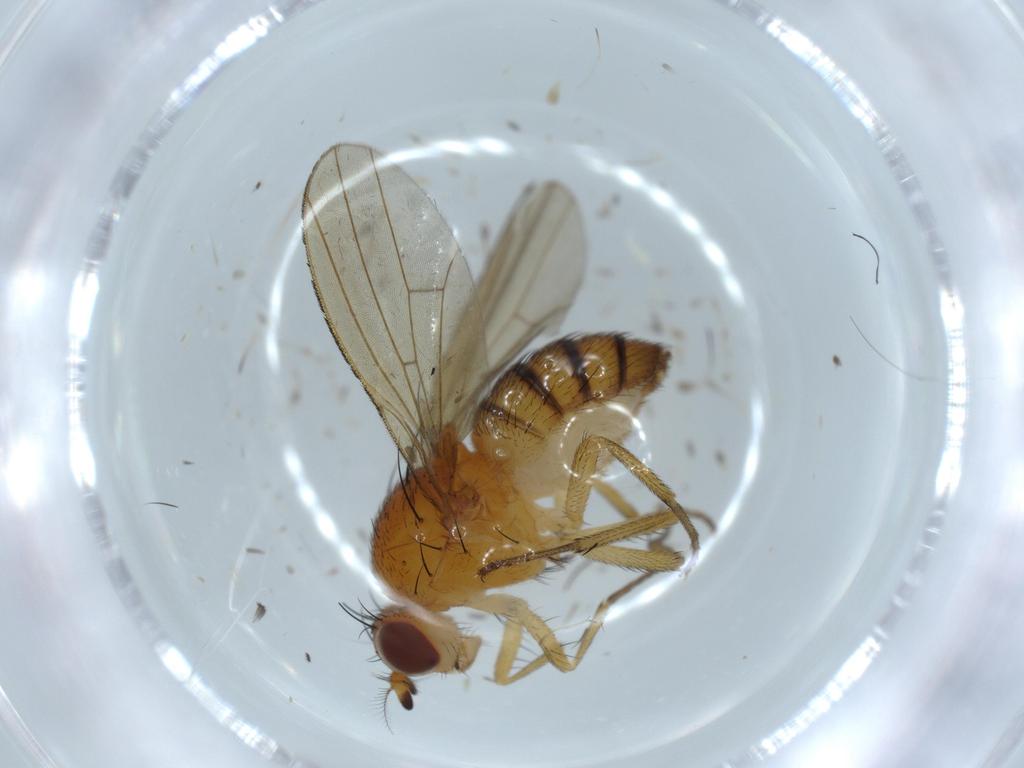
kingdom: Animalia
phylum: Arthropoda
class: Insecta
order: Diptera
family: Lauxaniidae
